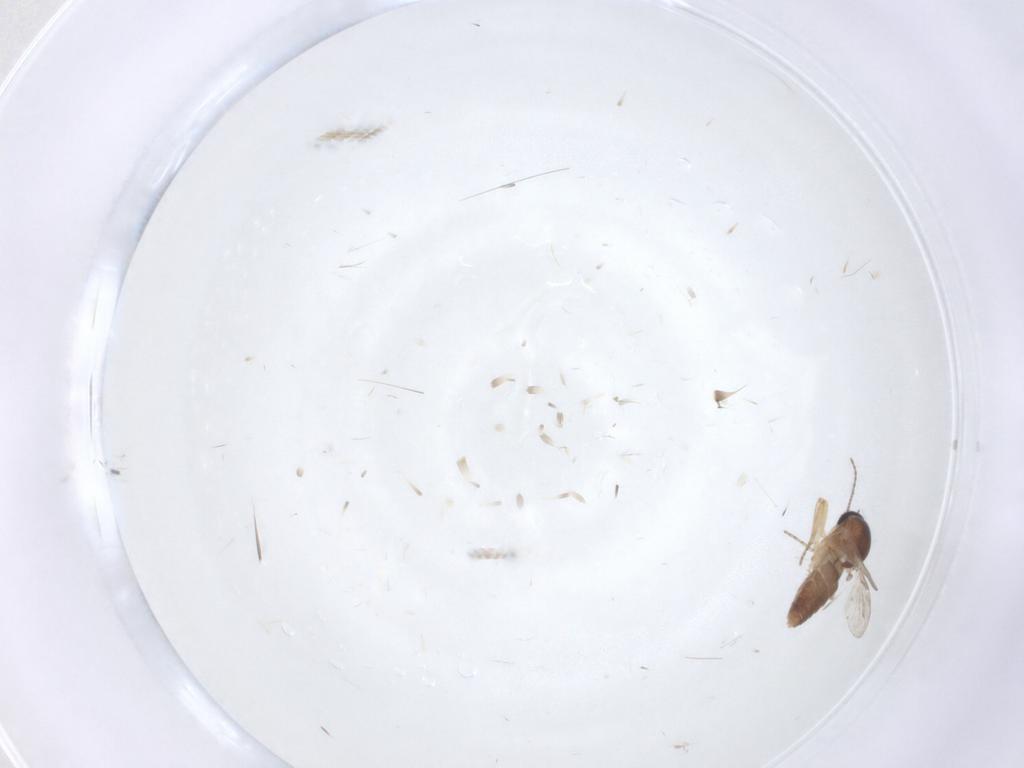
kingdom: Animalia
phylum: Arthropoda
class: Insecta
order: Diptera
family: Ceratopogonidae
